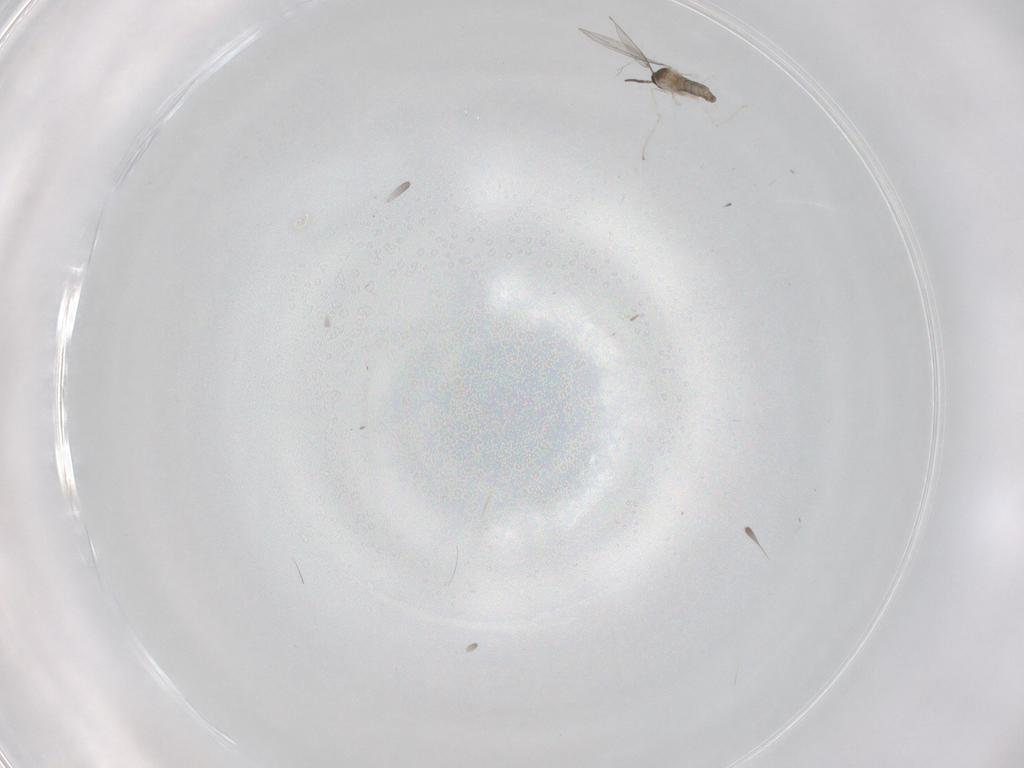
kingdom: Animalia
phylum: Arthropoda
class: Insecta
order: Diptera
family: Cecidomyiidae
